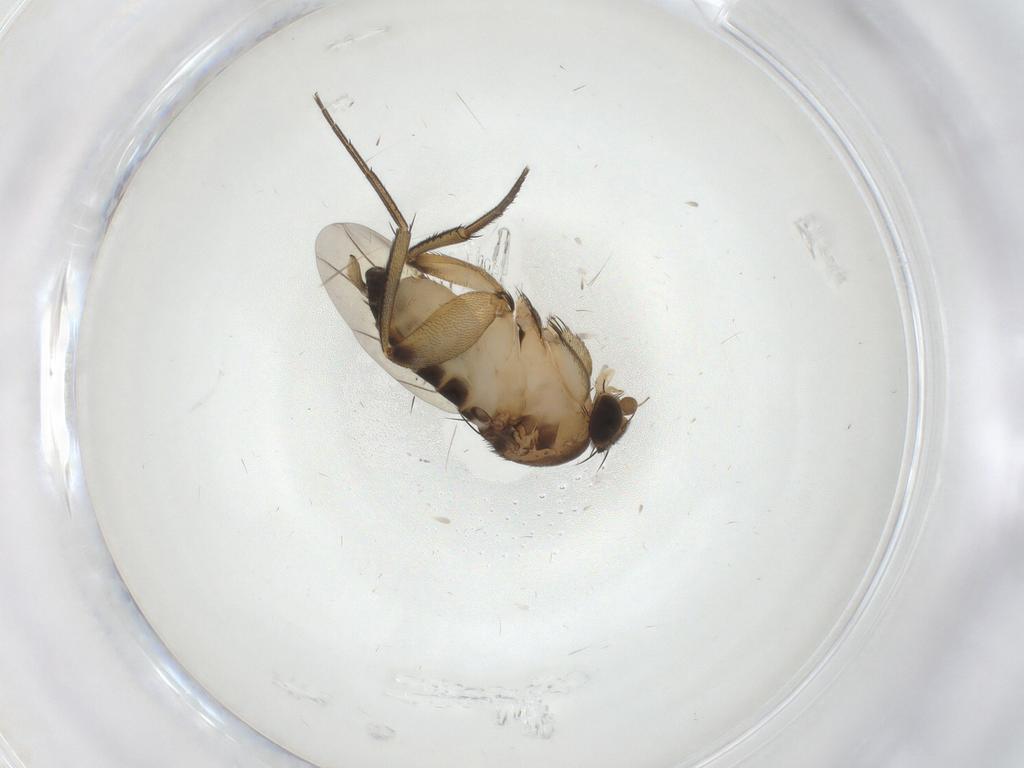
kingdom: Animalia
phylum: Arthropoda
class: Insecta
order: Diptera
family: Phoridae
